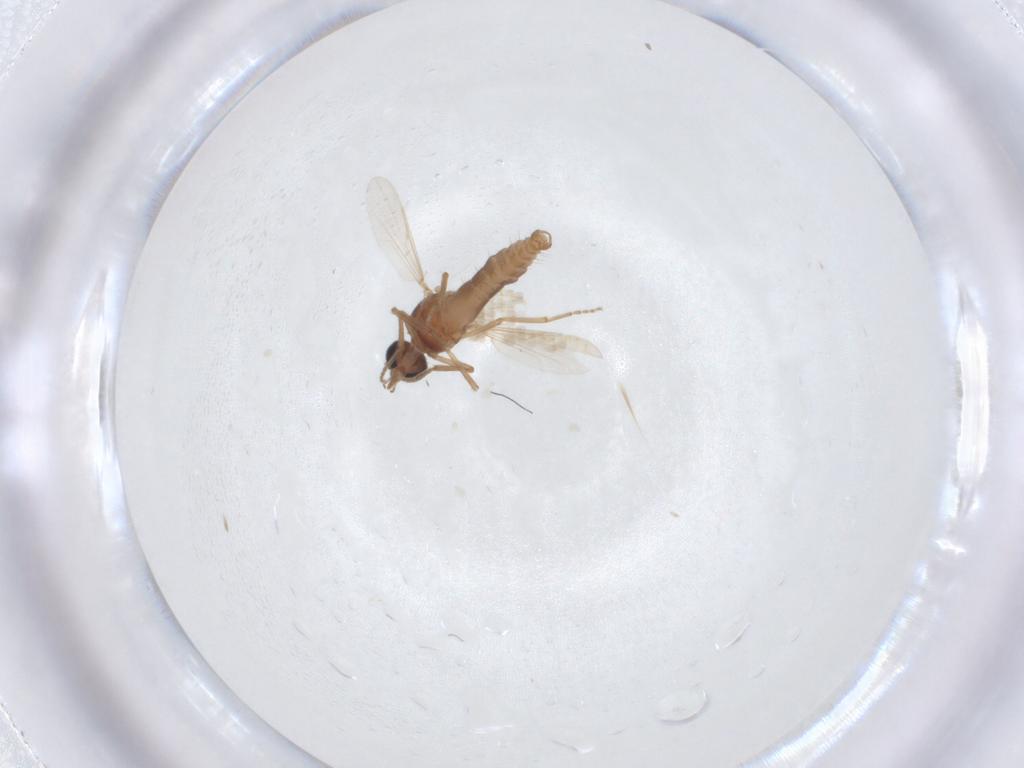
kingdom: Animalia
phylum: Arthropoda
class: Insecta
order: Diptera
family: Ceratopogonidae
